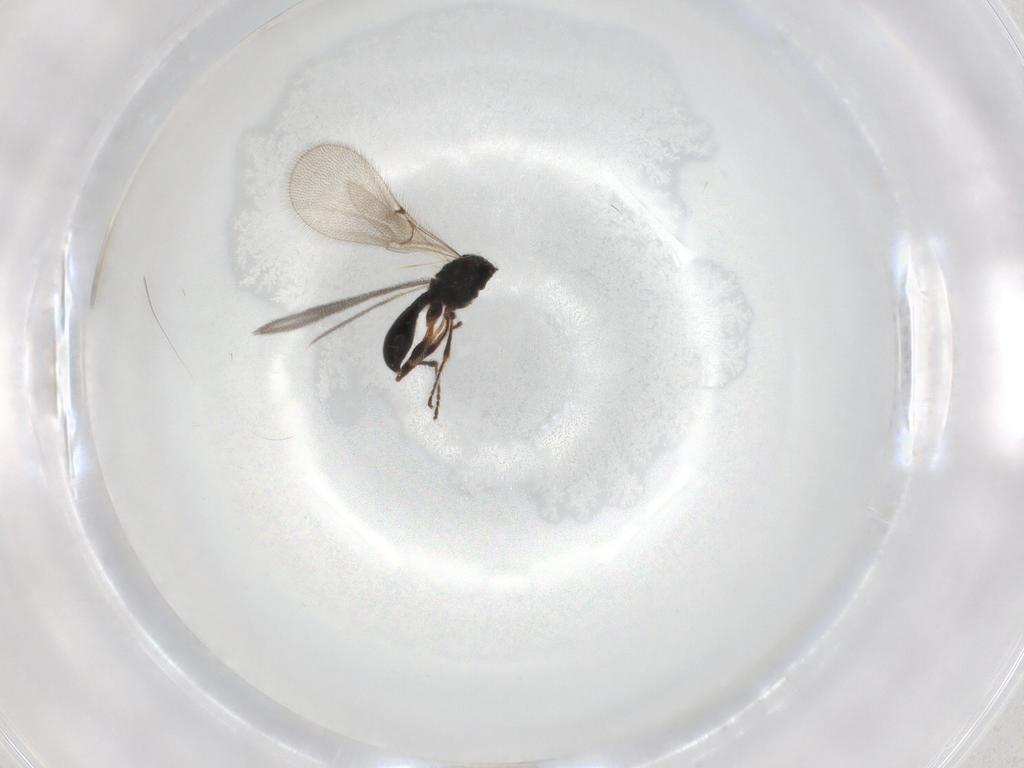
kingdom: Animalia
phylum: Arthropoda
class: Insecta
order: Hymenoptera
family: Diapriidae
